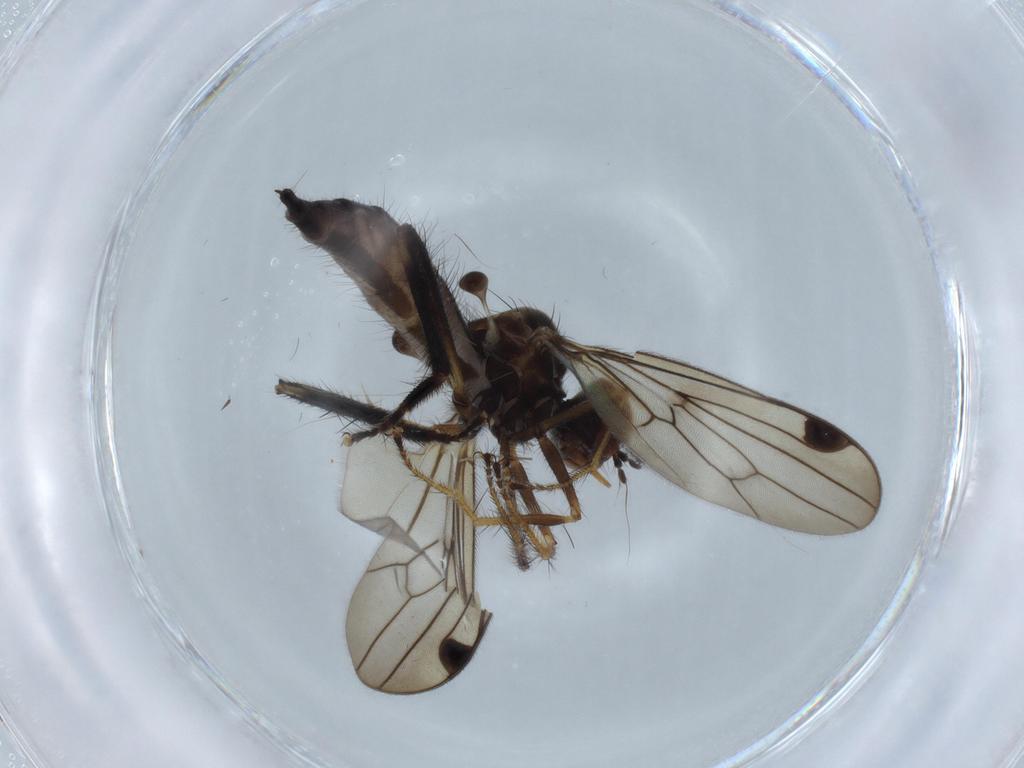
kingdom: Animalia
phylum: Arthropoda
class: Insecta
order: Diptera
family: Hybotidae
